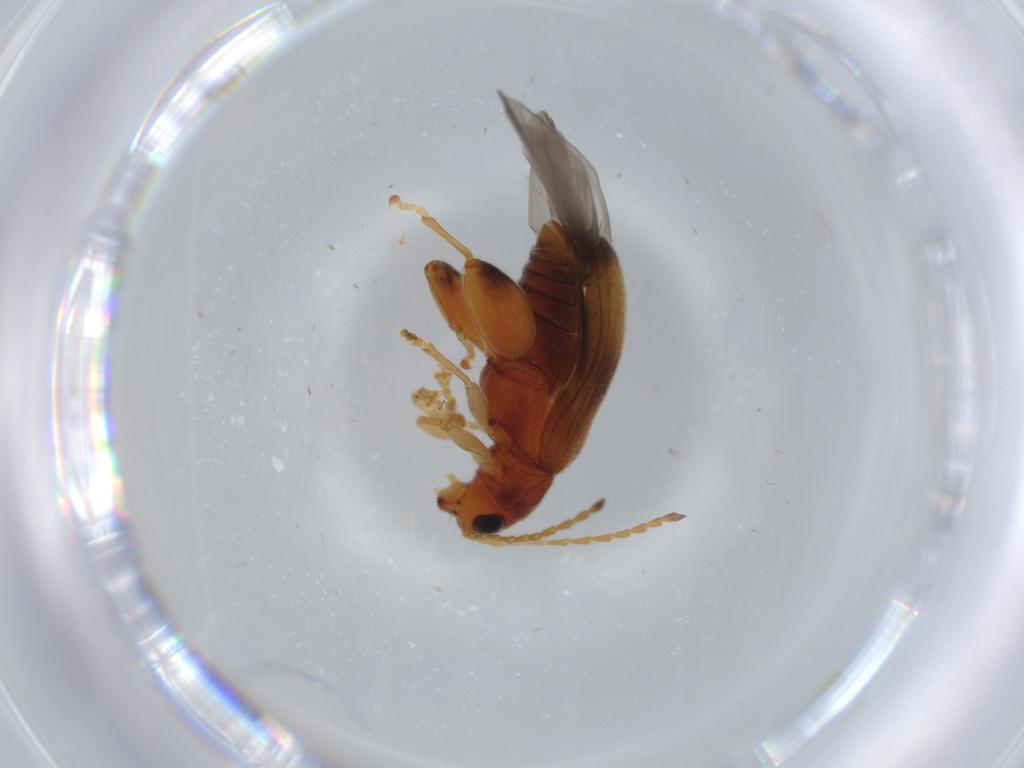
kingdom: Animalia
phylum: Arthropoda
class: Insecta
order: Coleoptera
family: Chrysomelidae
